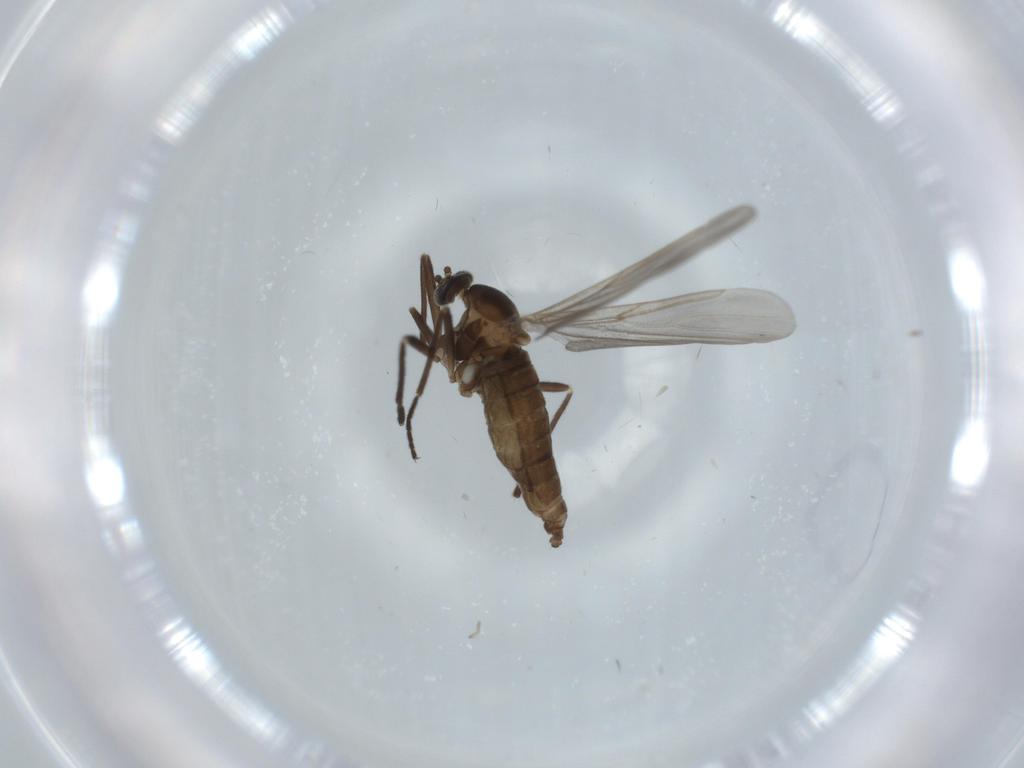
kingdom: Animalia
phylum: Arthropoda
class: Insecta
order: Diptera
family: Cecidomyiidae
